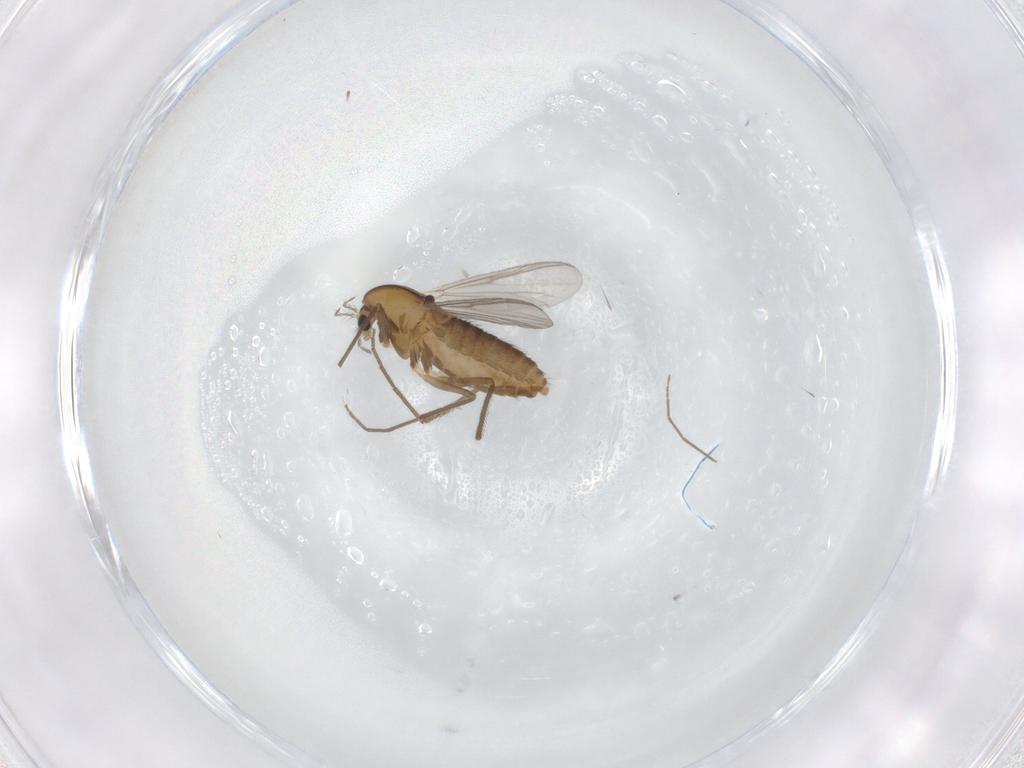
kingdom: Animalia
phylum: Arthropoda
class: Insecta
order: Diptera
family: Chironomidae
